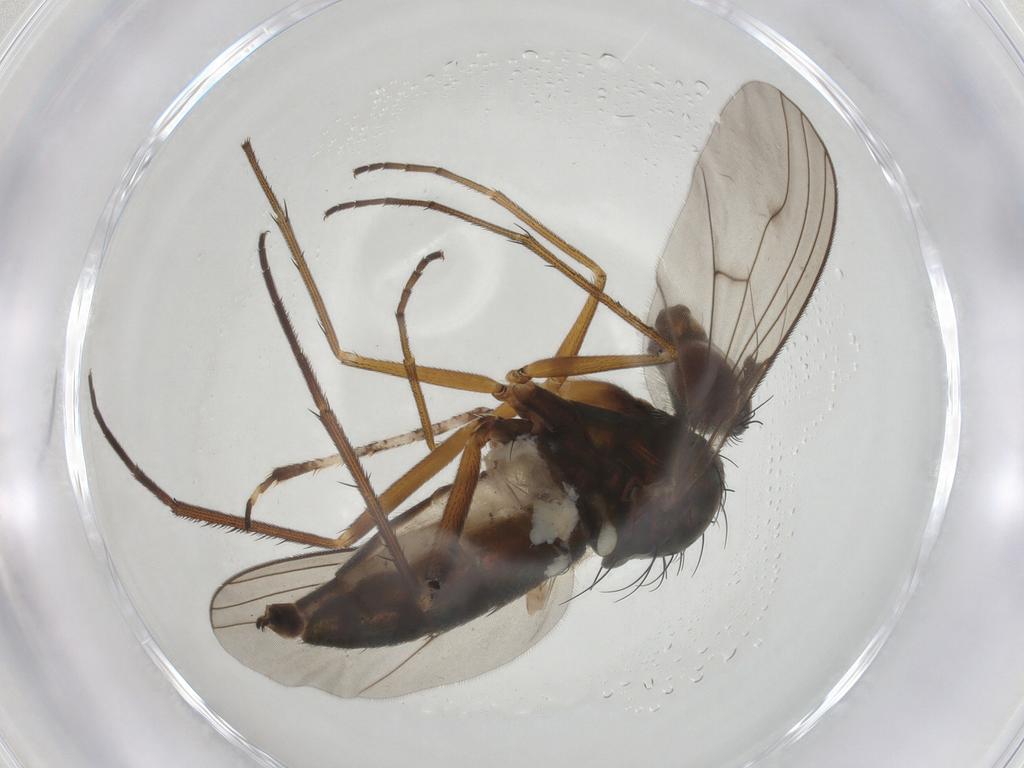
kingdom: Animalia
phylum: Arthropoda
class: Insecta
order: Diptera
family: Dolichopodidae
